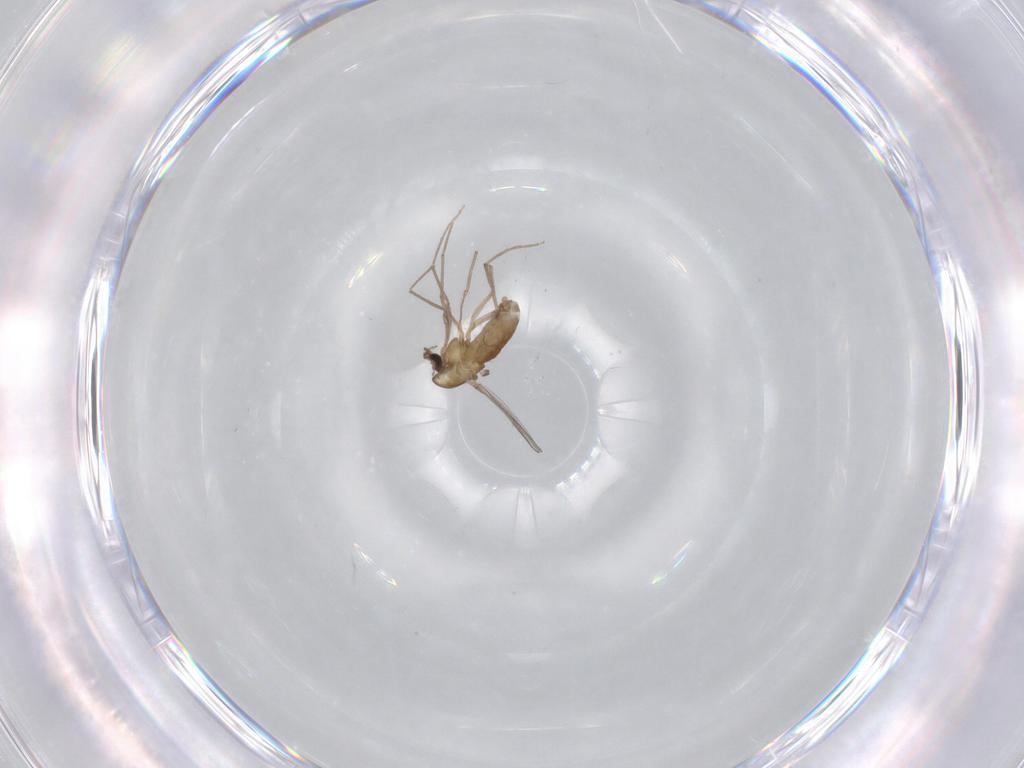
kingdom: Animalia
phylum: Arthropoda
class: Insecta
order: Diptera
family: Chironomidae
